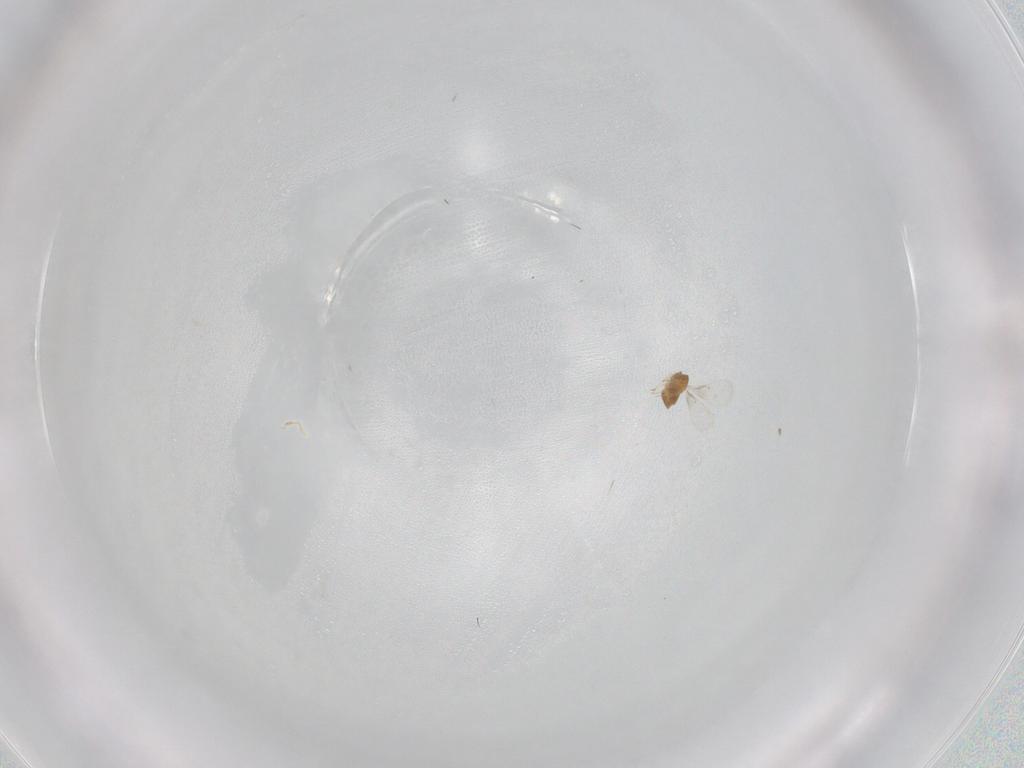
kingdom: Animalia
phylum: Arthropoda
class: Insecta
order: Hymenoptera
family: Trichogrammatidae
